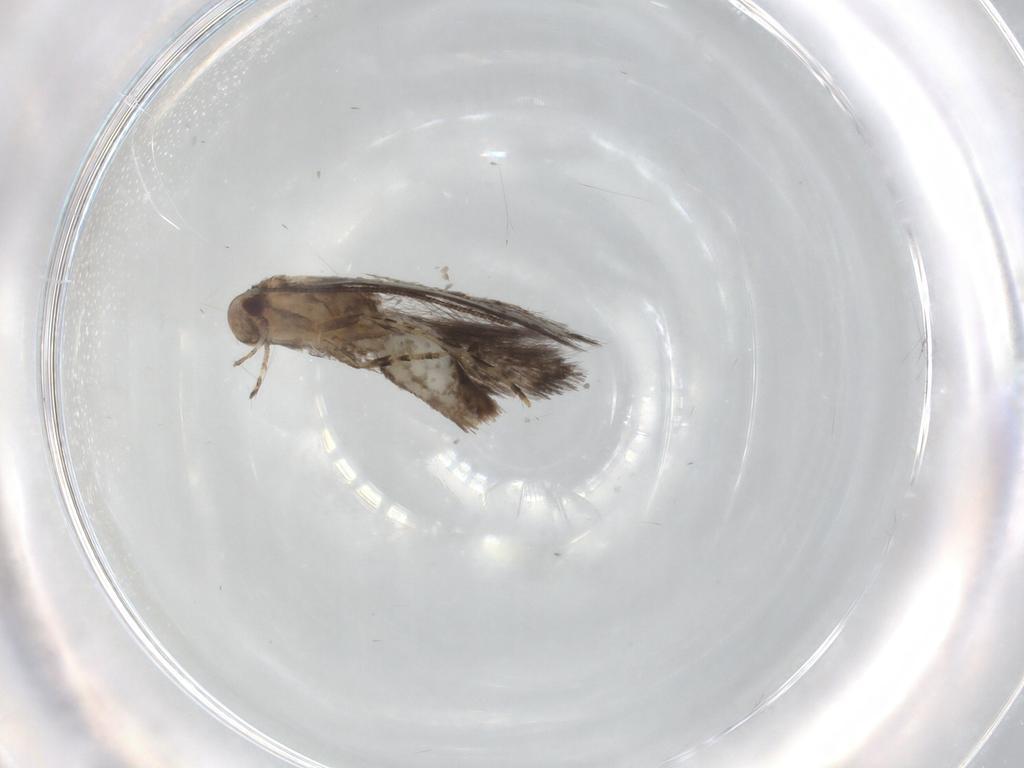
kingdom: Animalia
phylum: Arthropoda
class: Insecta
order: Lepidoptera
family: Elachistidae
